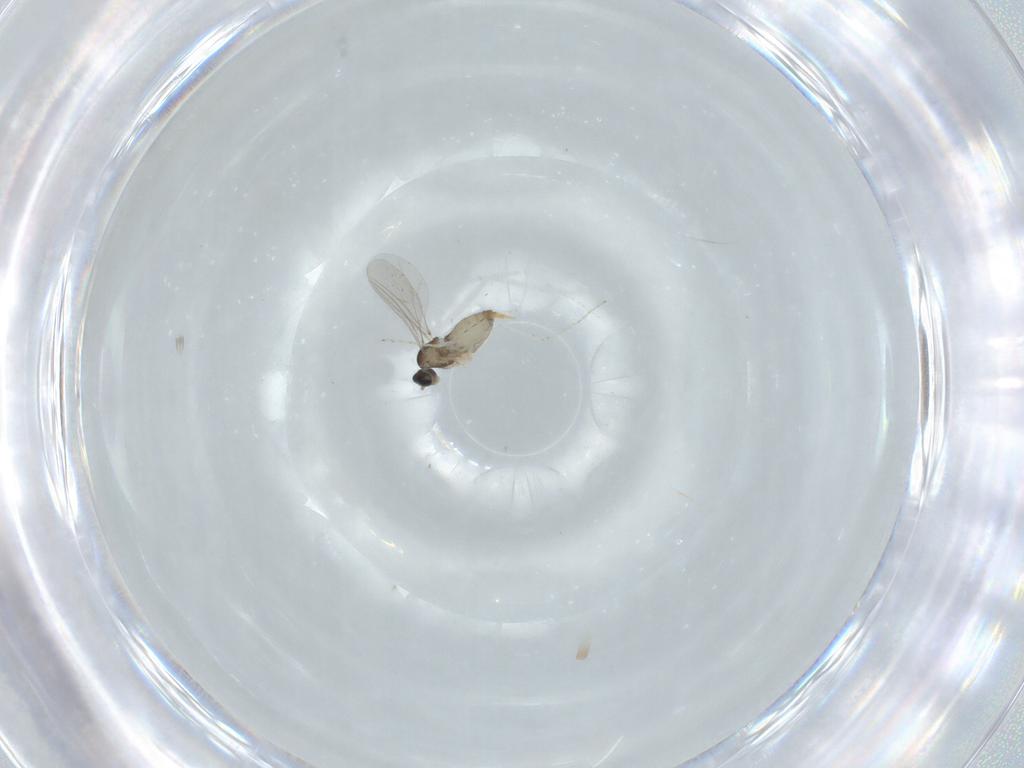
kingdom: Animalia
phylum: Arthropoda
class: Insecta
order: Diptera
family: Cecidomyiidae
